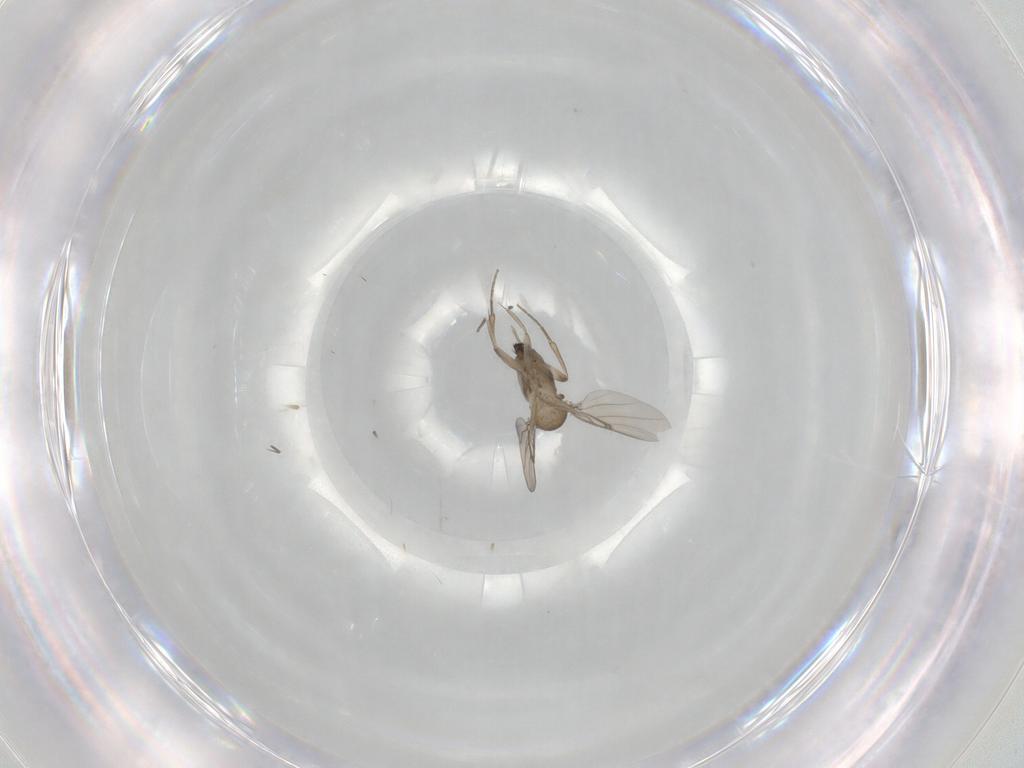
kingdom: Animalia
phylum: Arthropoda
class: Insecta
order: Diptera
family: Phoridae
